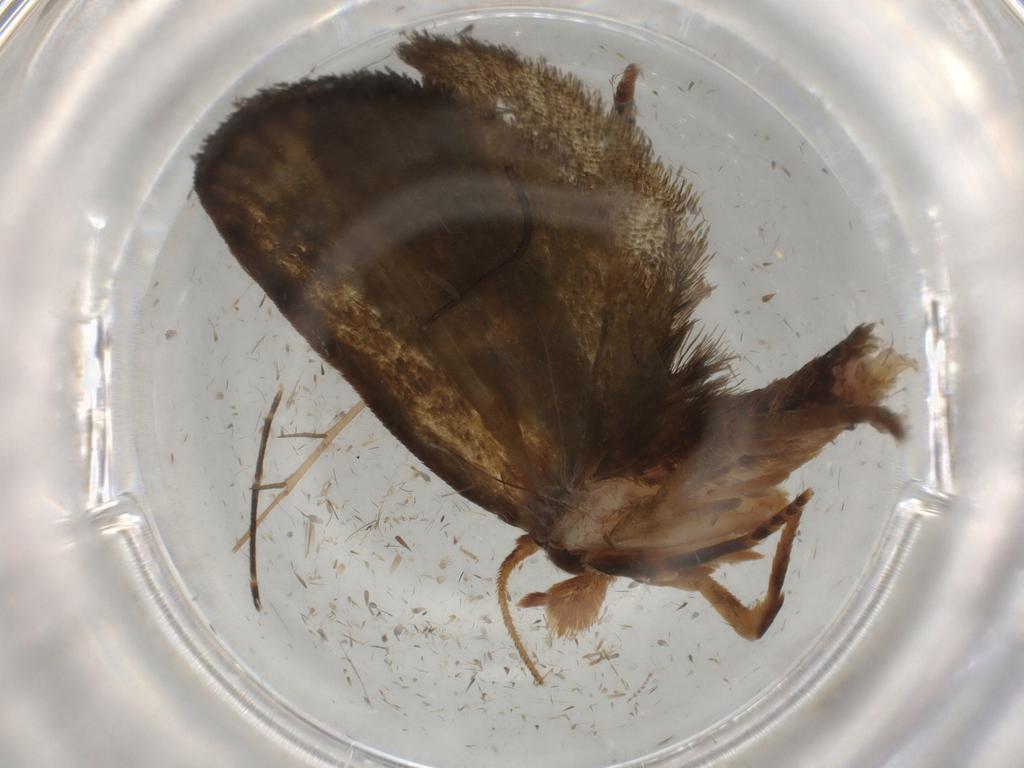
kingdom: Animalia
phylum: Arthropoda
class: Insecta
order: Lepidoptera
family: Geometridae
